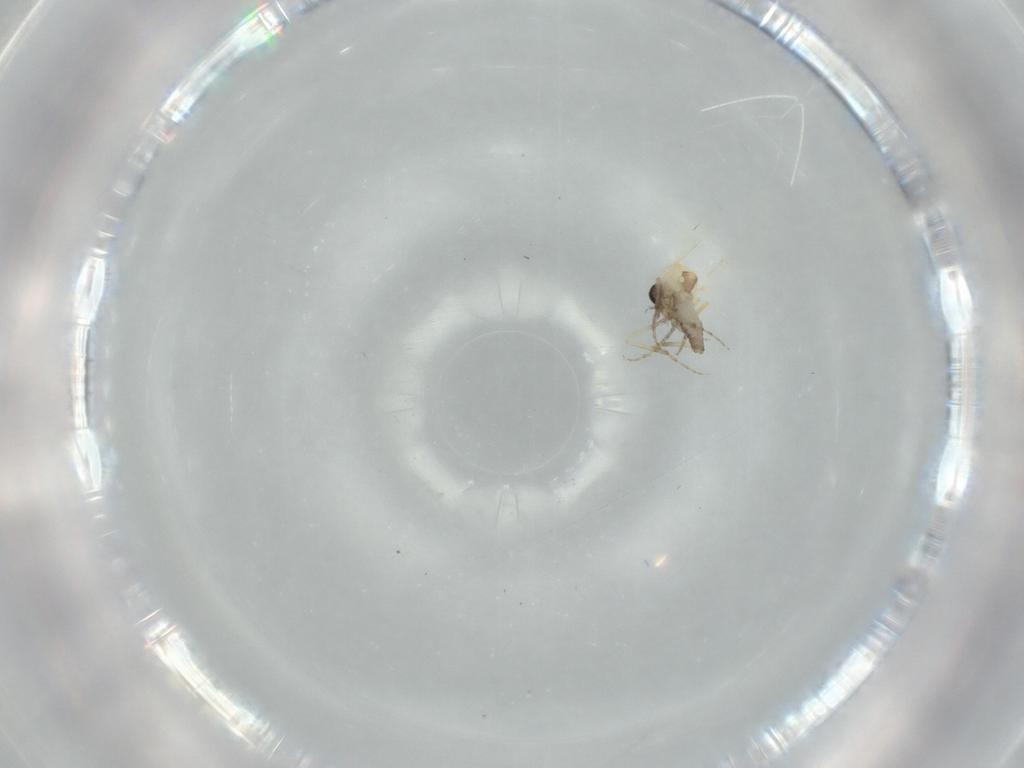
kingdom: Animalia
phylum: Arthropoda
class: Insecta
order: Diptera
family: Ceratopogonidae
